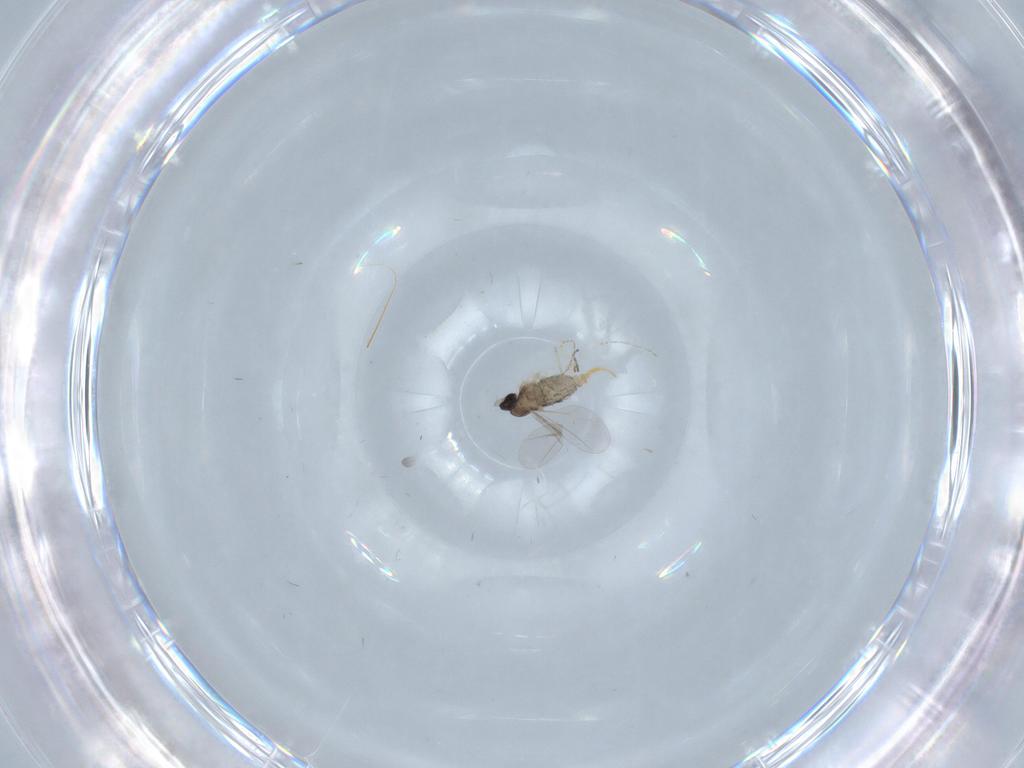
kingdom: Animalia
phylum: Arthropoda
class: Insecta
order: Diptera
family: Cecidomyiidae
